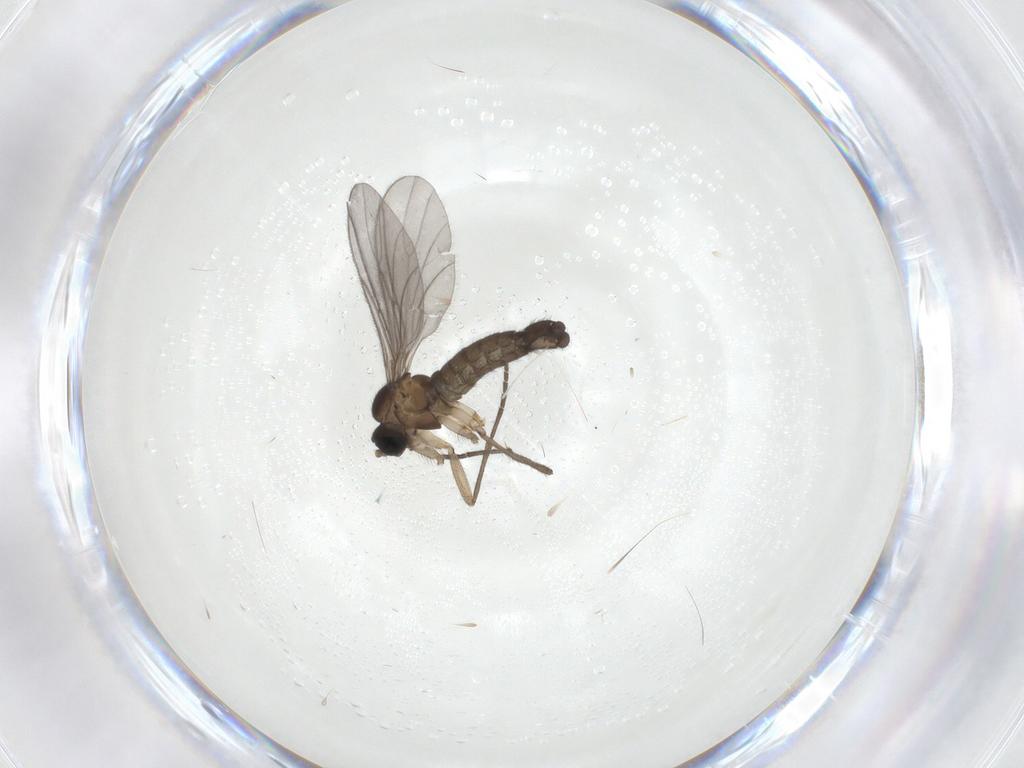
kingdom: Animalia
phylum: Arthropoda
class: Insecta
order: Diptera
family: Sciaridae
